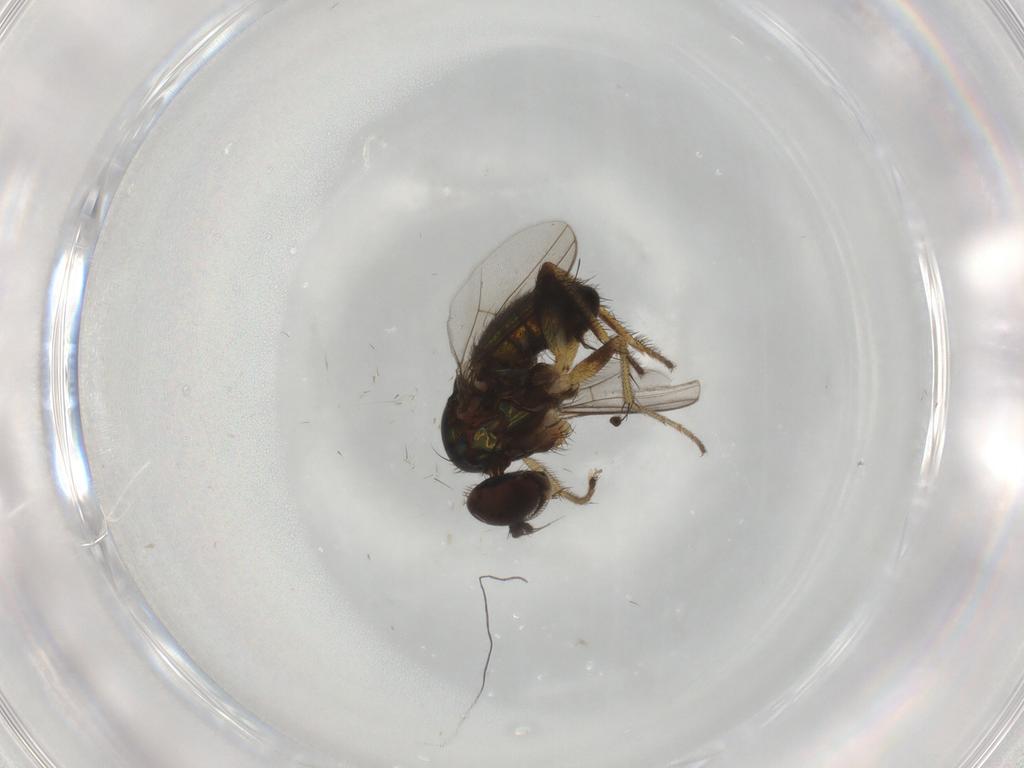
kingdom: Animalia
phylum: Arthropoda
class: Insecta
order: Diptera
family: Dolichopodidae
